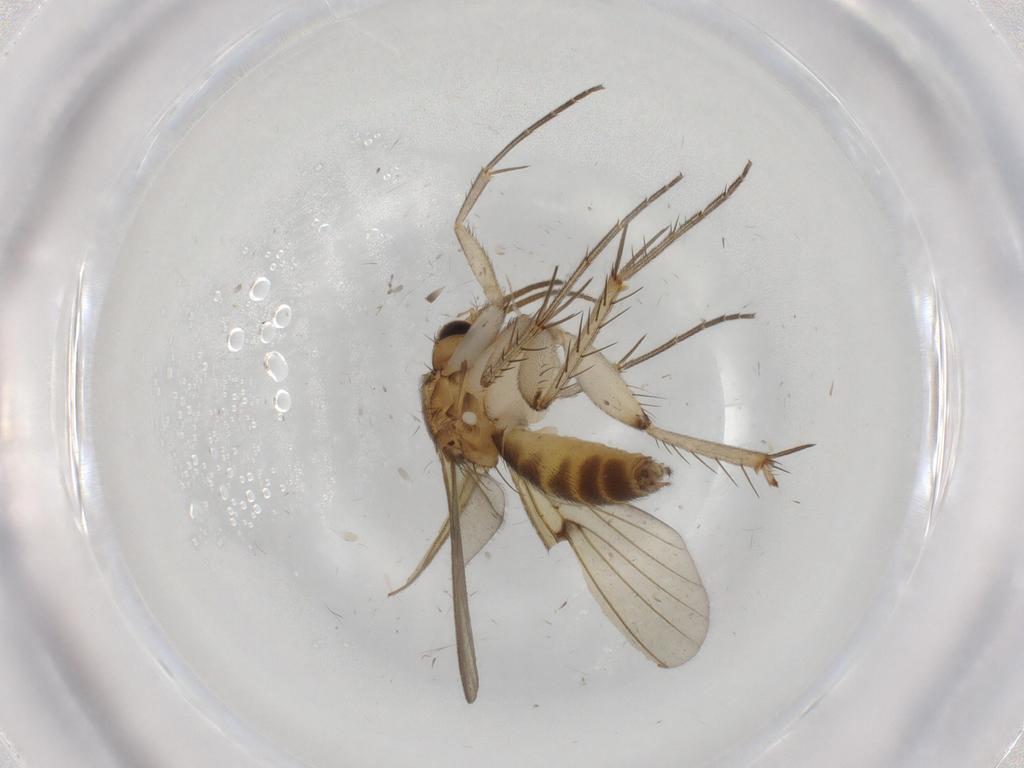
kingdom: Animalia
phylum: Arthropoda
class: Insecta
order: Diptera
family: Mycetophilidae
